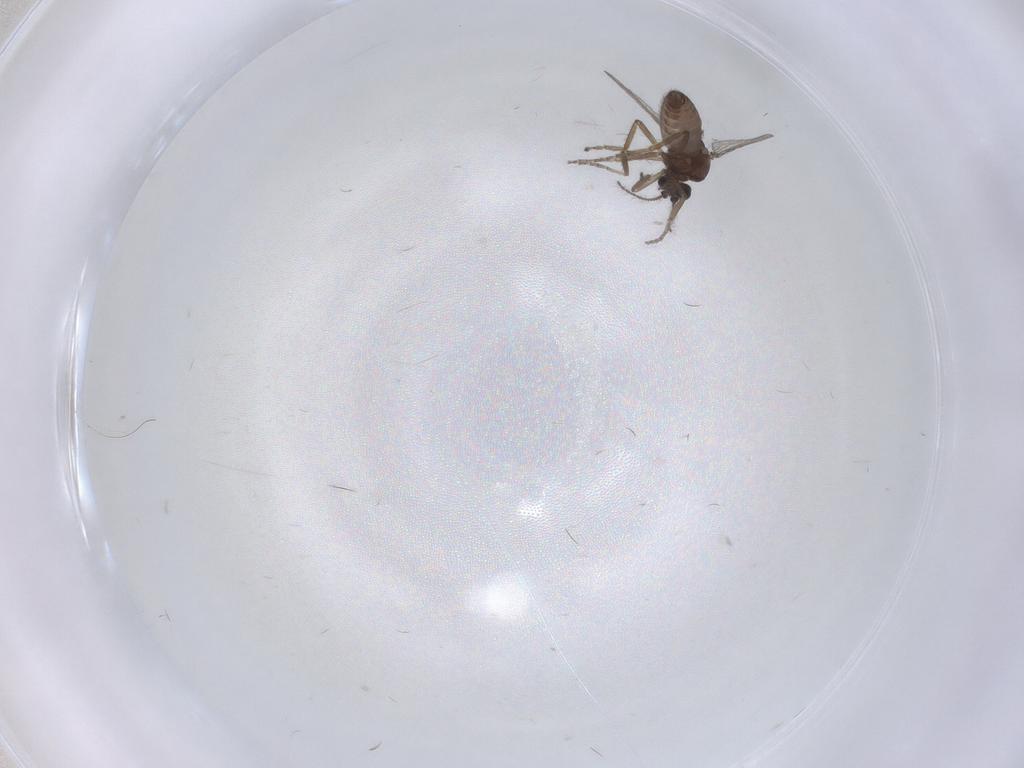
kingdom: Animalia
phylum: Arthropoda
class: Insecta
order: Diptera
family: Ceratopogonidae
